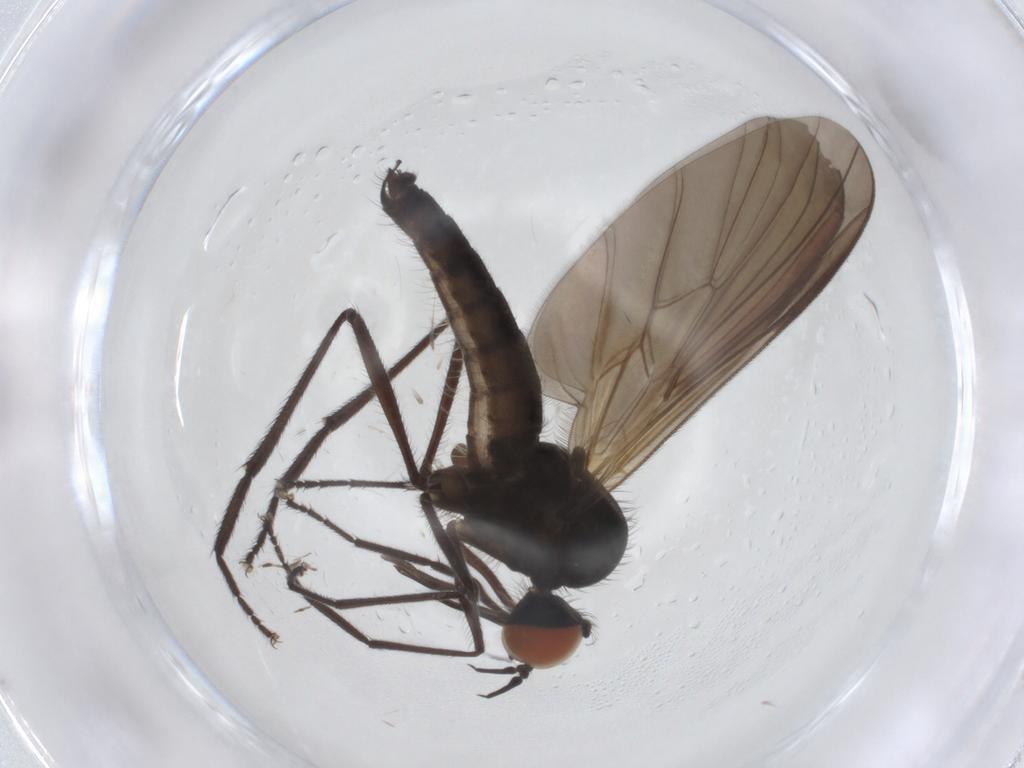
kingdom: Animalia
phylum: Arthropoda
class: Insecta
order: Diptera
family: Empididae
